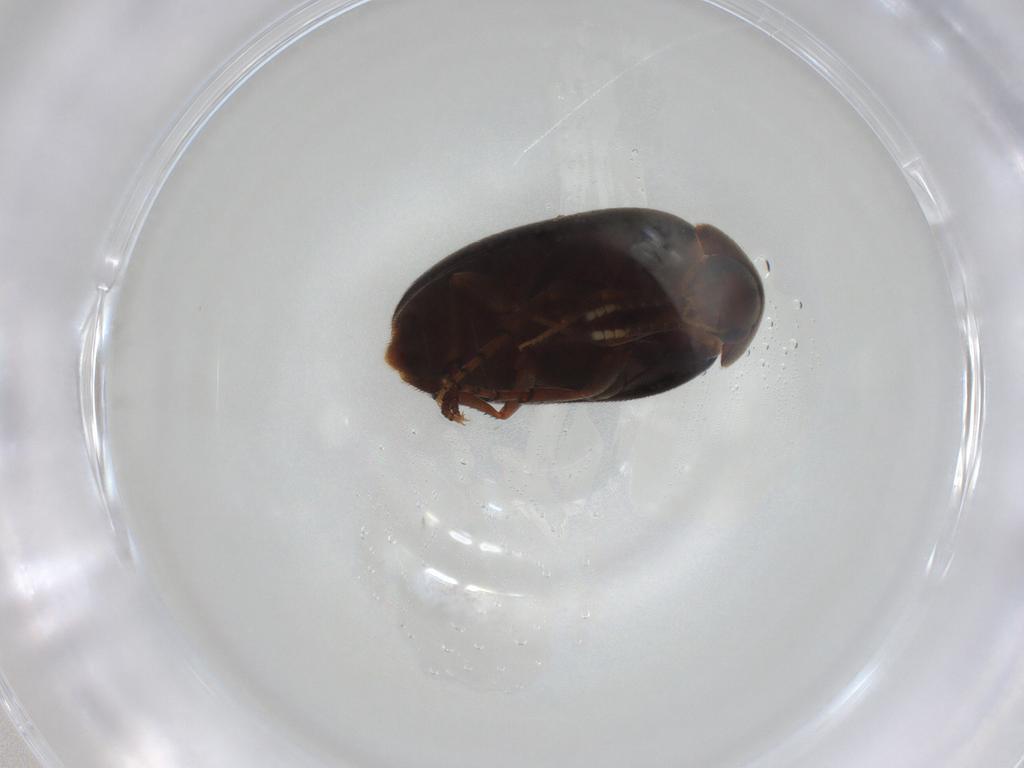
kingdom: Animalia
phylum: Arthropoda
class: Insecta
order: Coleoptera
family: Eucinetidae
